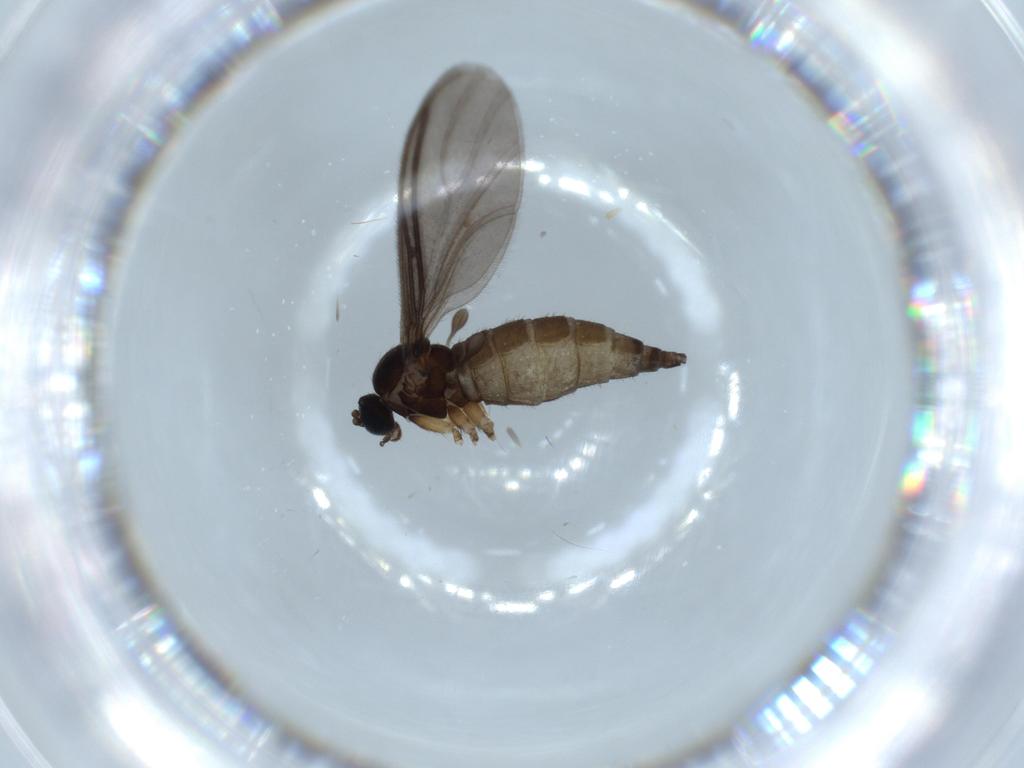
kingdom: Animalia
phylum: Arthropoda
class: Insecta
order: Diptera
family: Sciaridae
